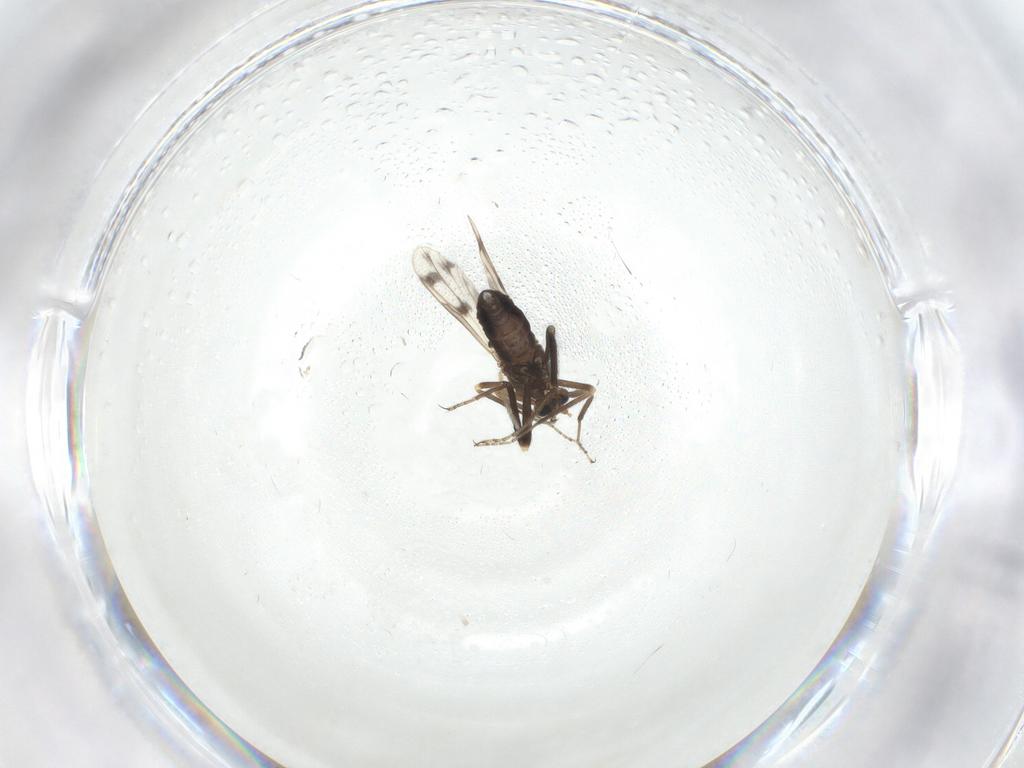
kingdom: Animalia
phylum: Arthropoda
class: Insecta
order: Diptera
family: Ceratopogonidae
